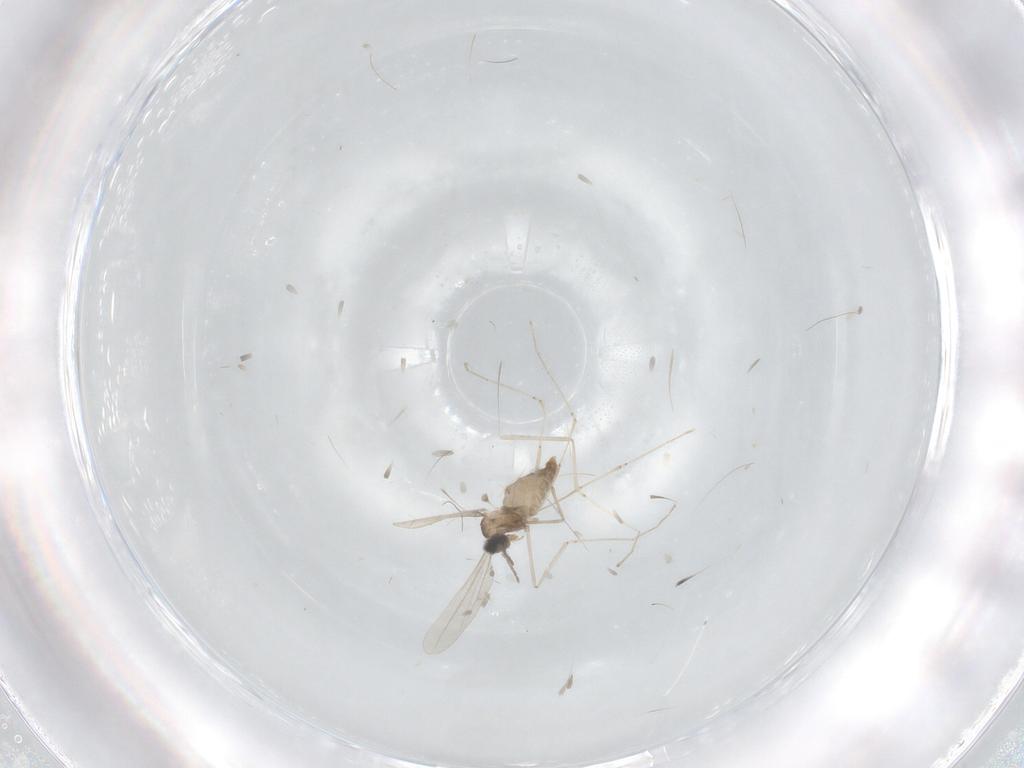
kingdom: Animalia
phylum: Arthropoda
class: Insecta
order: Diptera
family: Cecidomyiidae
